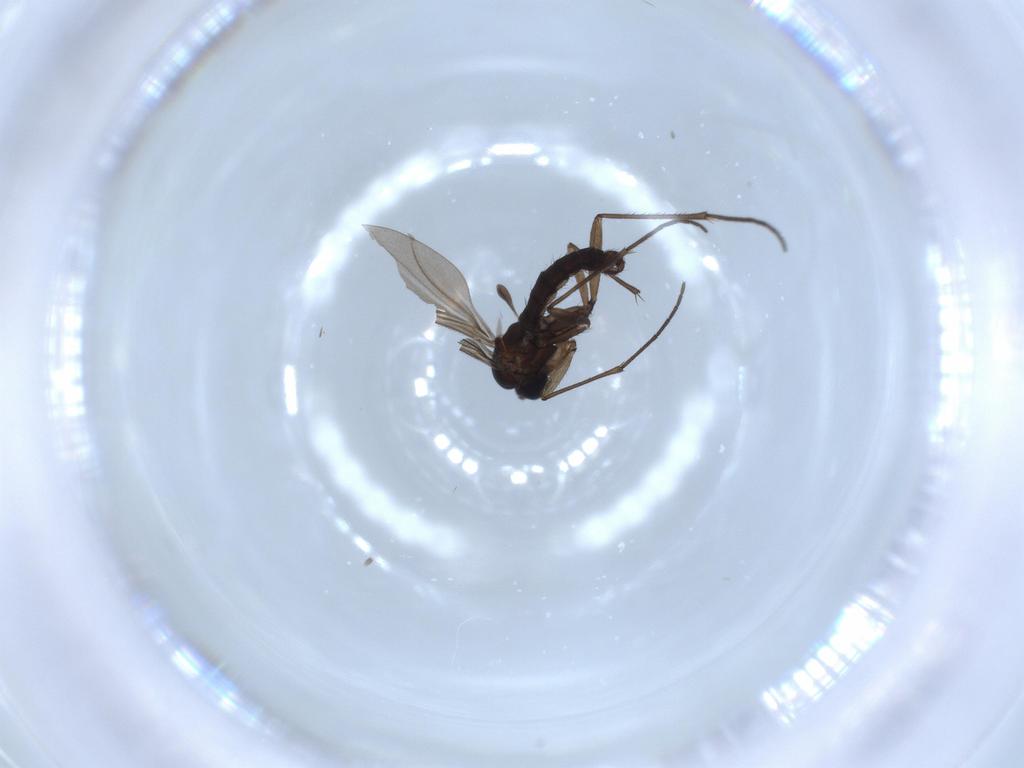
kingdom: Animalia
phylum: Arthropoda
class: Insecta
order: Diptera
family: Sciaridae
